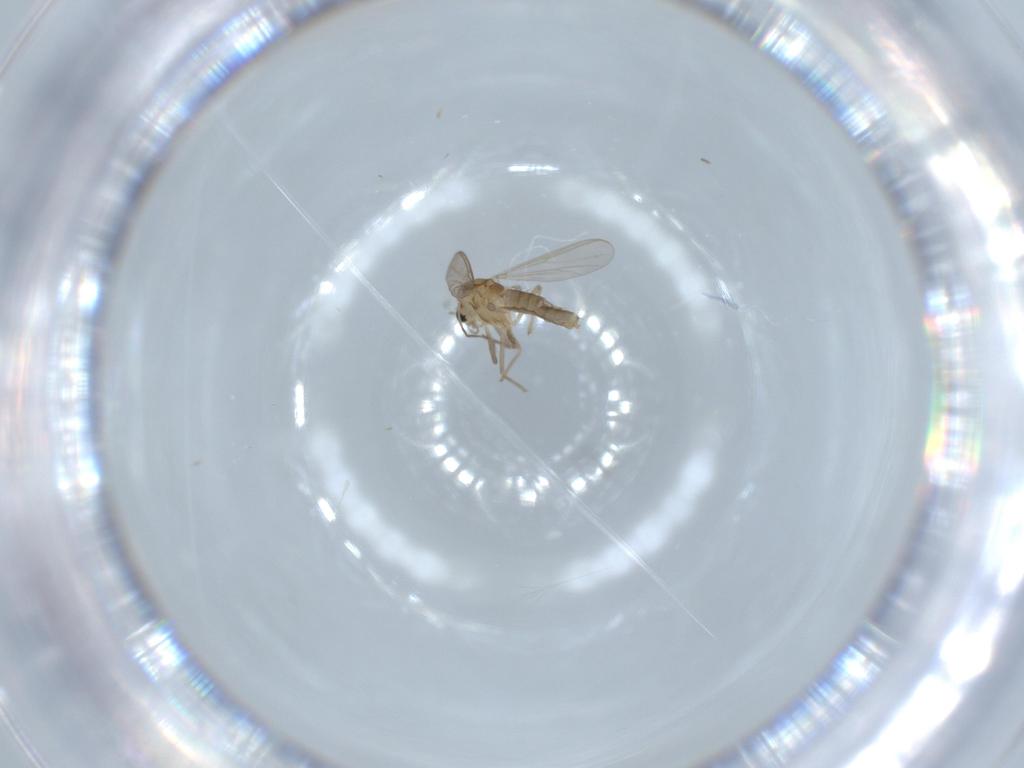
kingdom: Animalia
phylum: Arthropoda
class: Insecta
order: Diptera
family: Chironomidae
